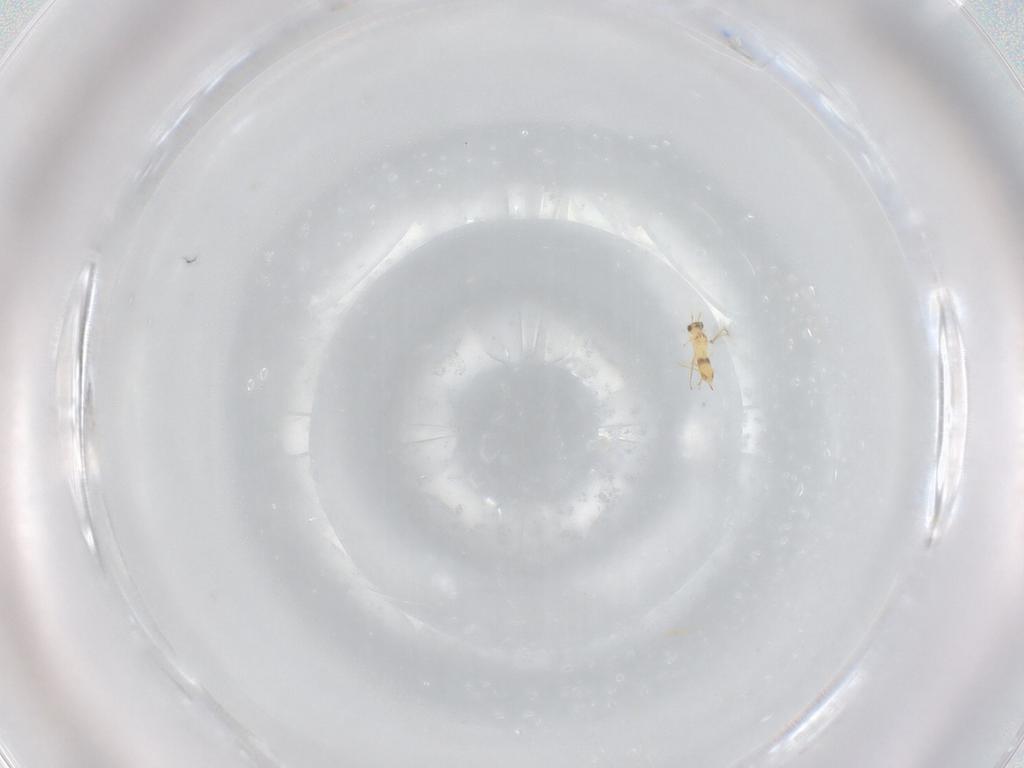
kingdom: Animalia
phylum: Arthropoda
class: Insecta
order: Hymenoptera
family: Mymaridae
